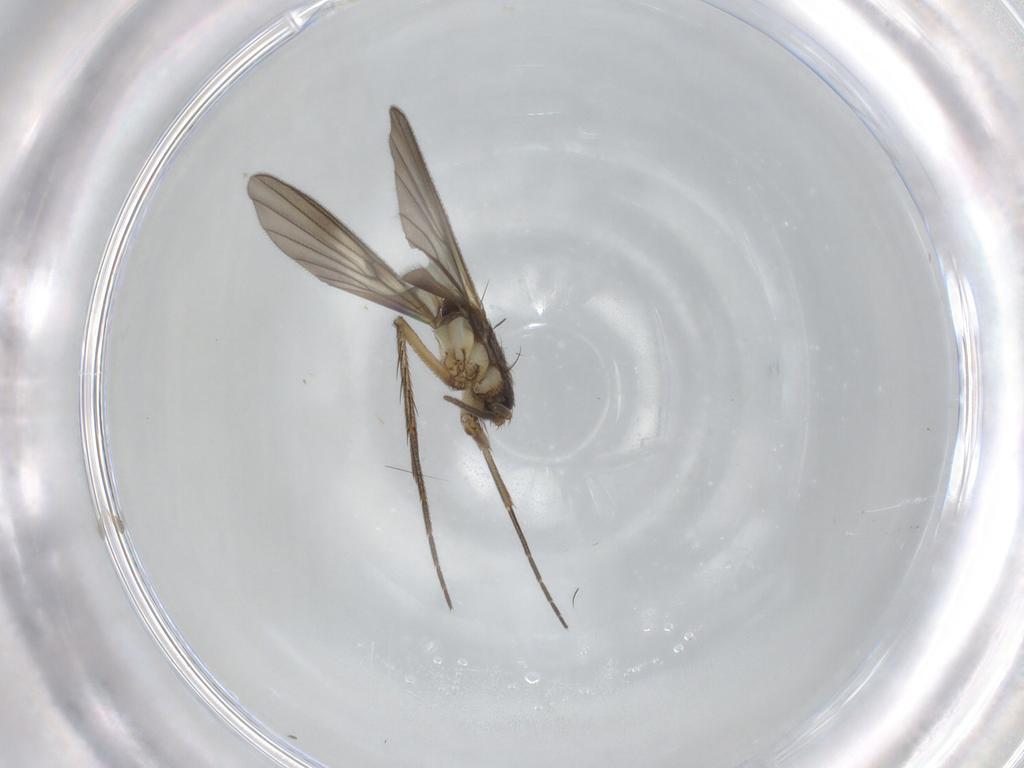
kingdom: Animalia
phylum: Arthropoda
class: Insecta
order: Diptera
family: Mycetophilidae
